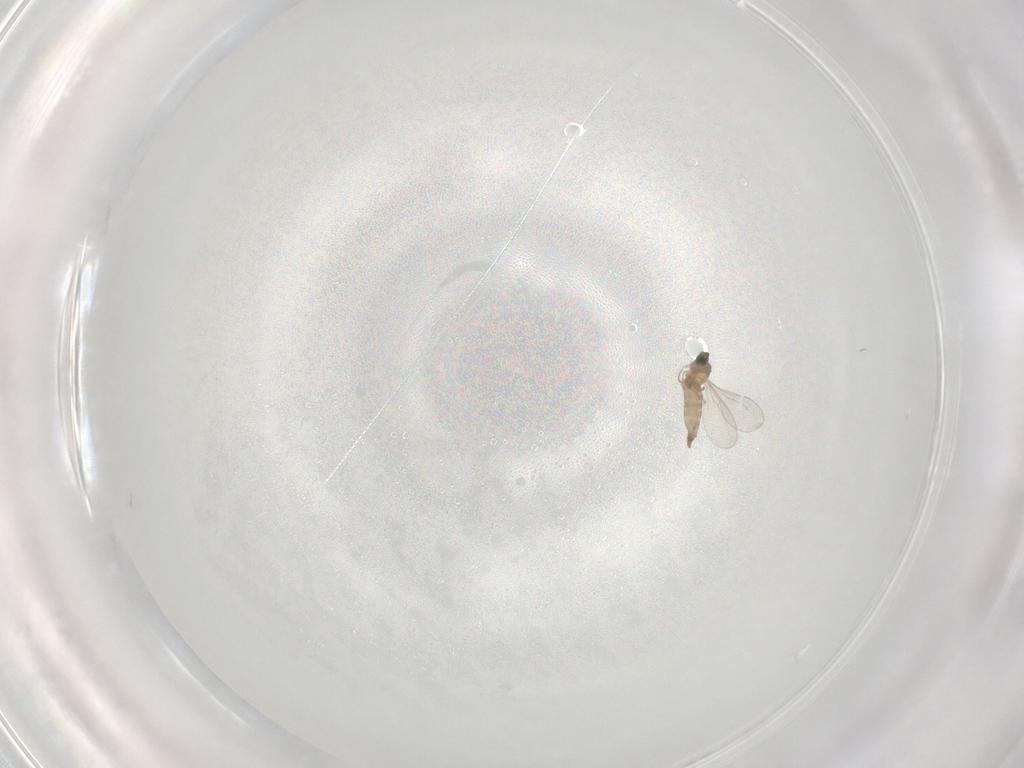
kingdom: Animalia
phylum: Arthropoda
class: Insecta
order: Diptera
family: Cecidomyiidae
